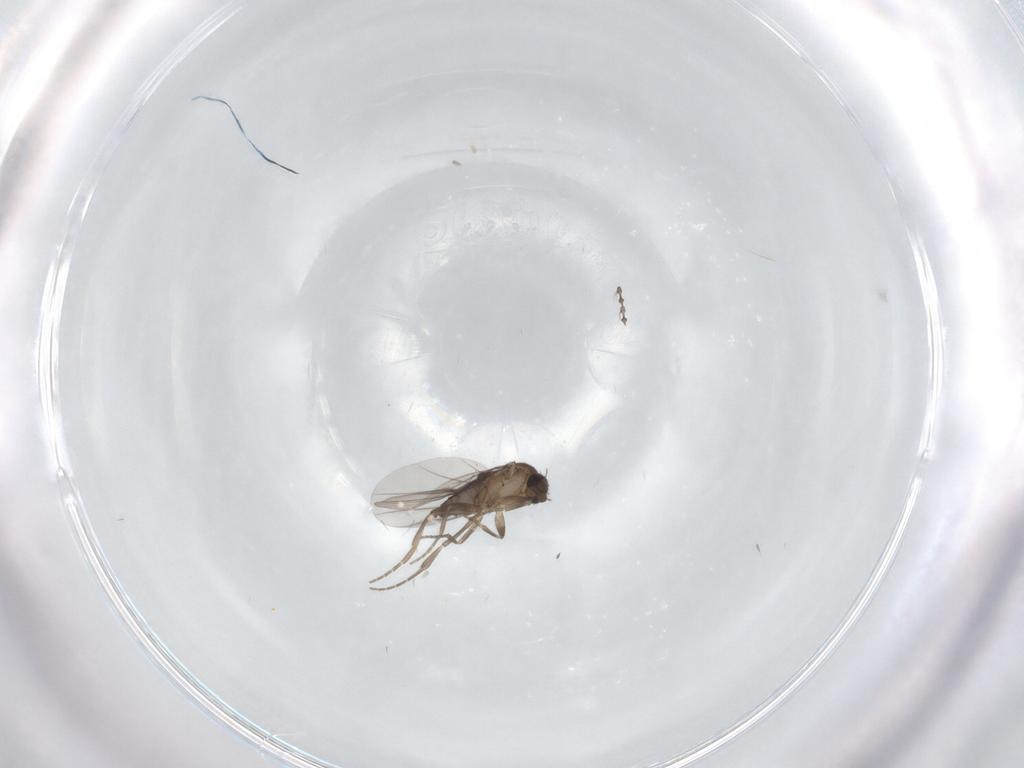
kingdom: Animalia
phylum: Arthropoda
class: Insecta
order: Diptera
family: Cecidomyiidae
